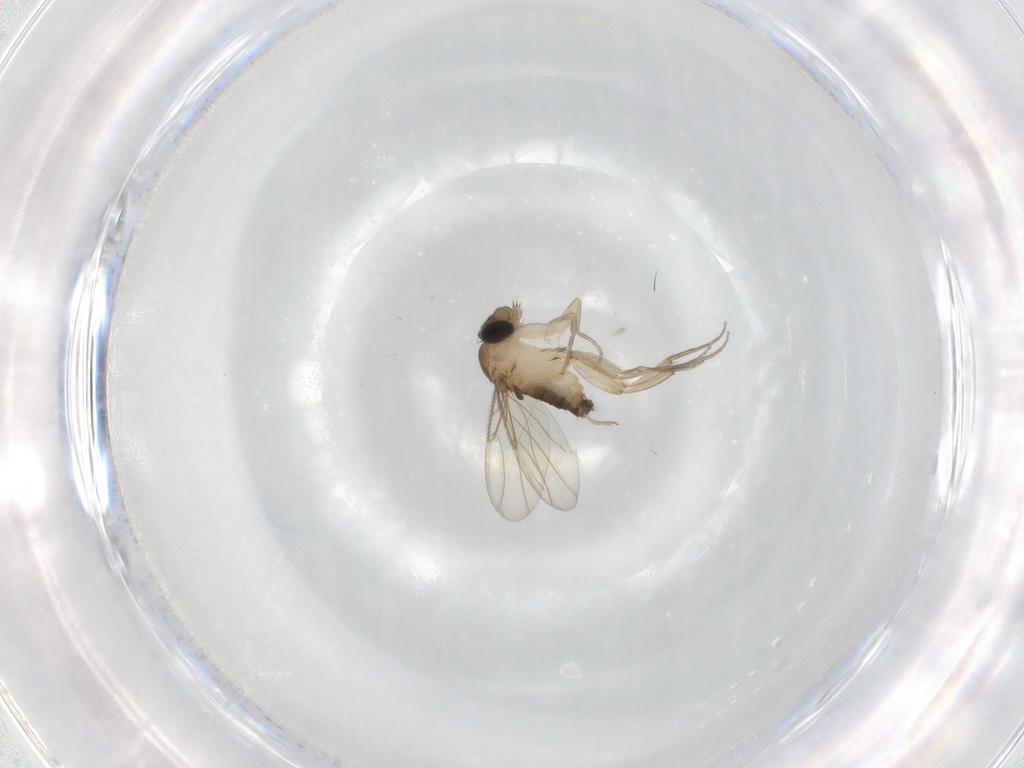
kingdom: Animalia
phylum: Arthropoda
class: Insecta
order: Diptera
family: Phoridae
